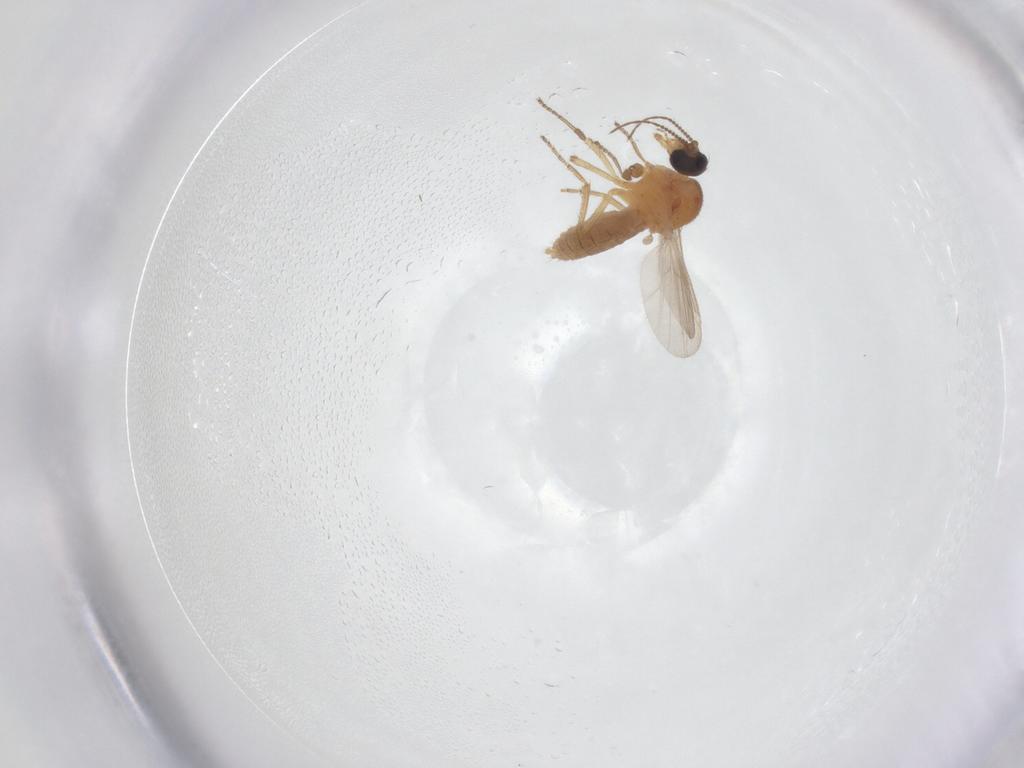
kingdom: Animalia
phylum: Arthropoda
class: Insecta
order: Diptera
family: Ceratopogonidae
